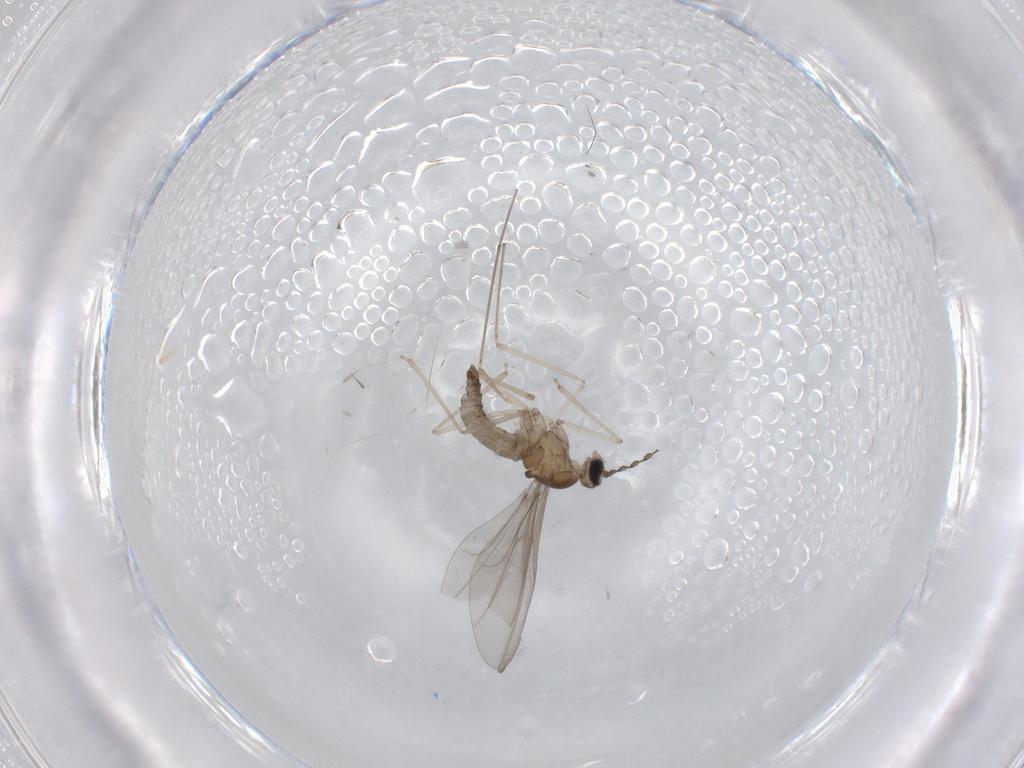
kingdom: Animalia
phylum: Arthropoda
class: Insecta
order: Diptera
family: Cecidomyiidae
